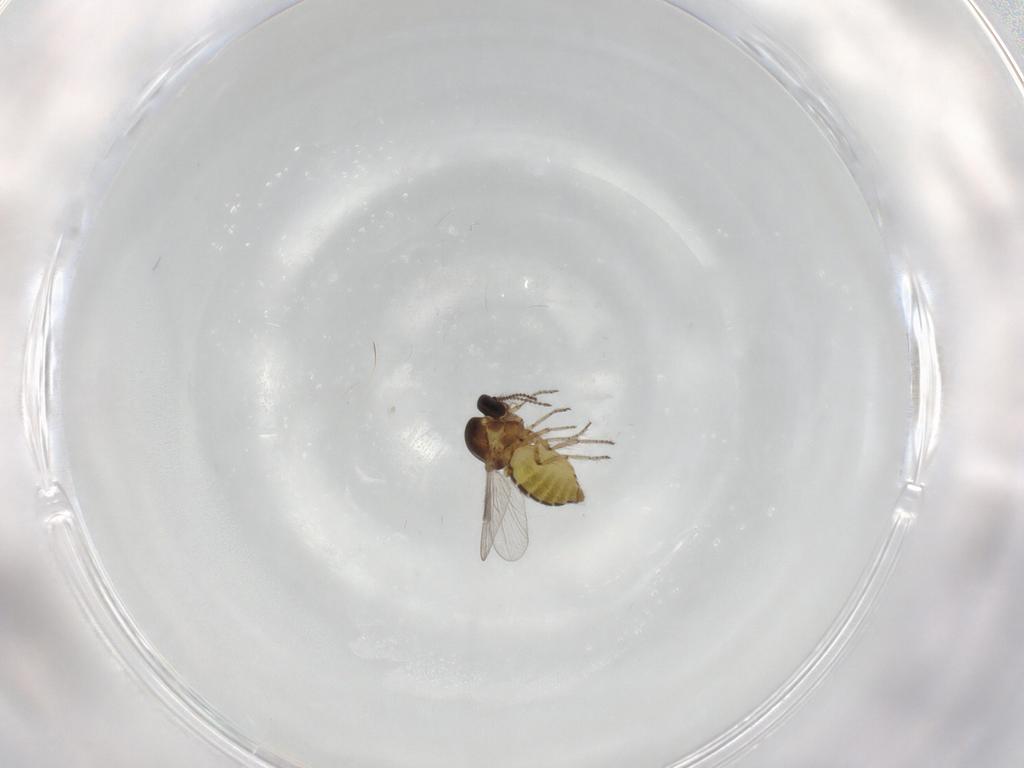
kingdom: Animalia
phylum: Arthropoda
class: Insecta
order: Diptera
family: Ceratopogonidae
